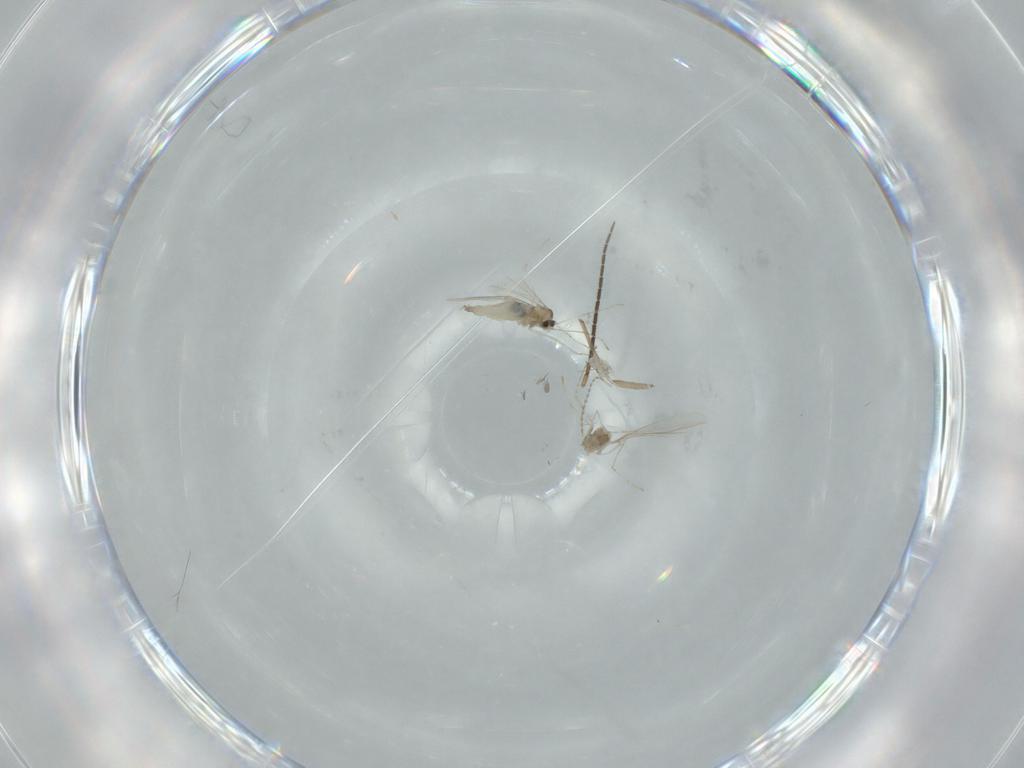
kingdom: Animalia
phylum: Arthropoda
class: Insecta
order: Diptera
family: Cecidomyiidae
